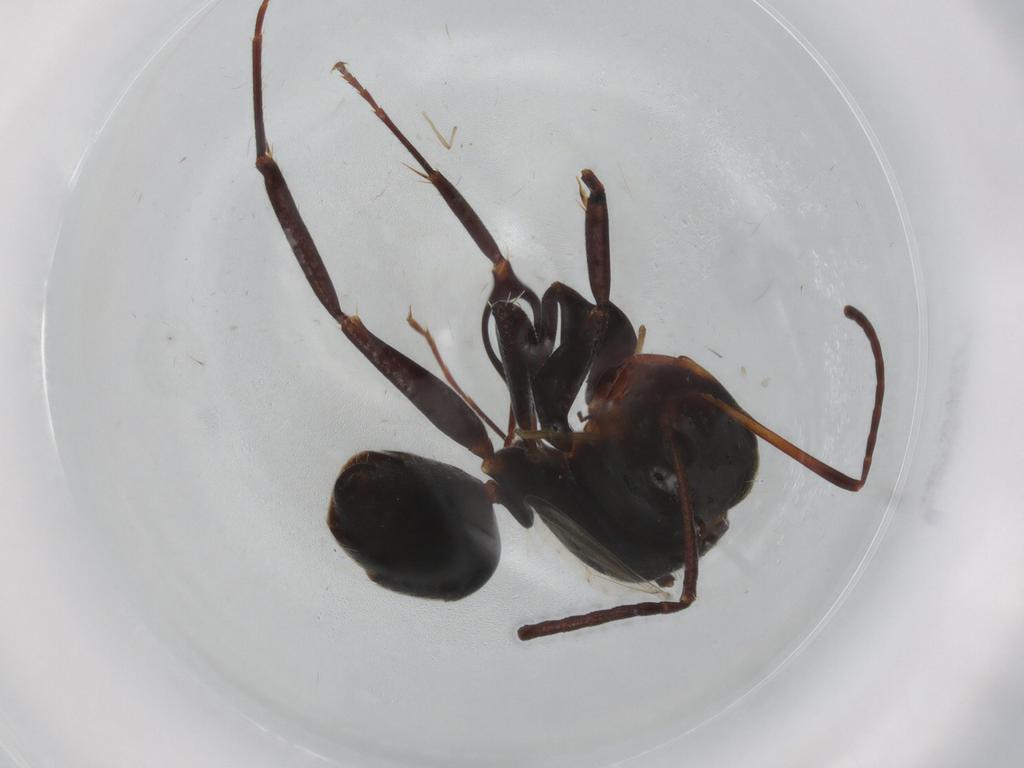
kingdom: Animalia
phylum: Arthropoda
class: Insecta
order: Hymenoptera
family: Formicidae
